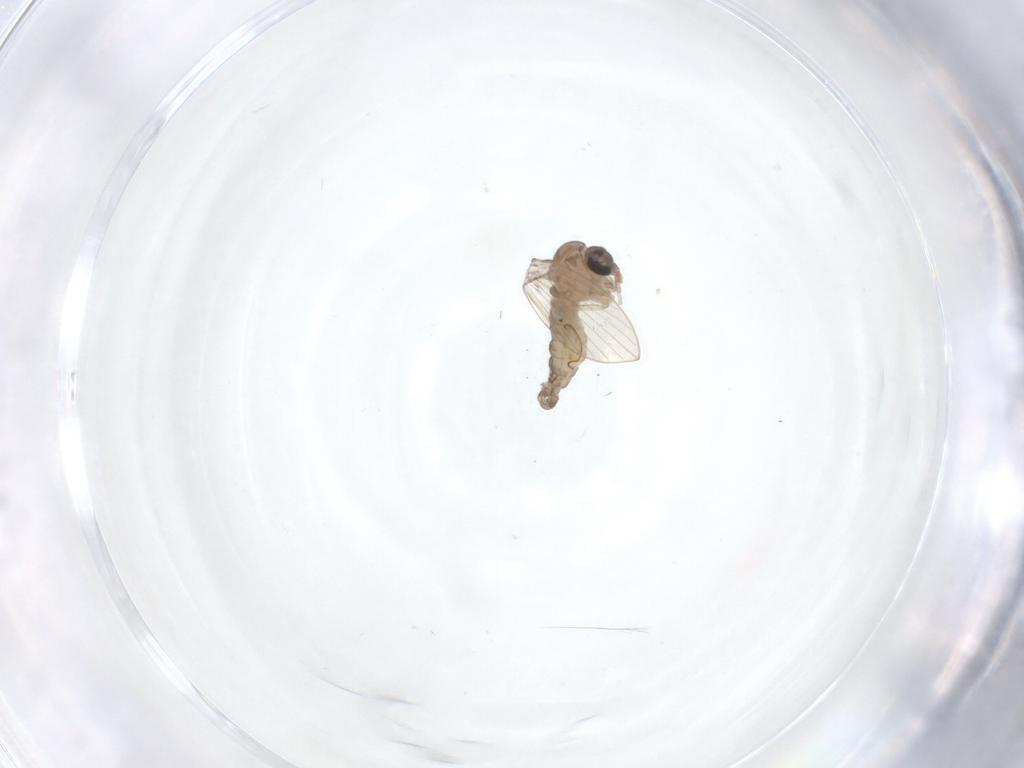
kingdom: Animalia
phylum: Arthropoda
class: Insecta
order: Diptera
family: Psychodidae
